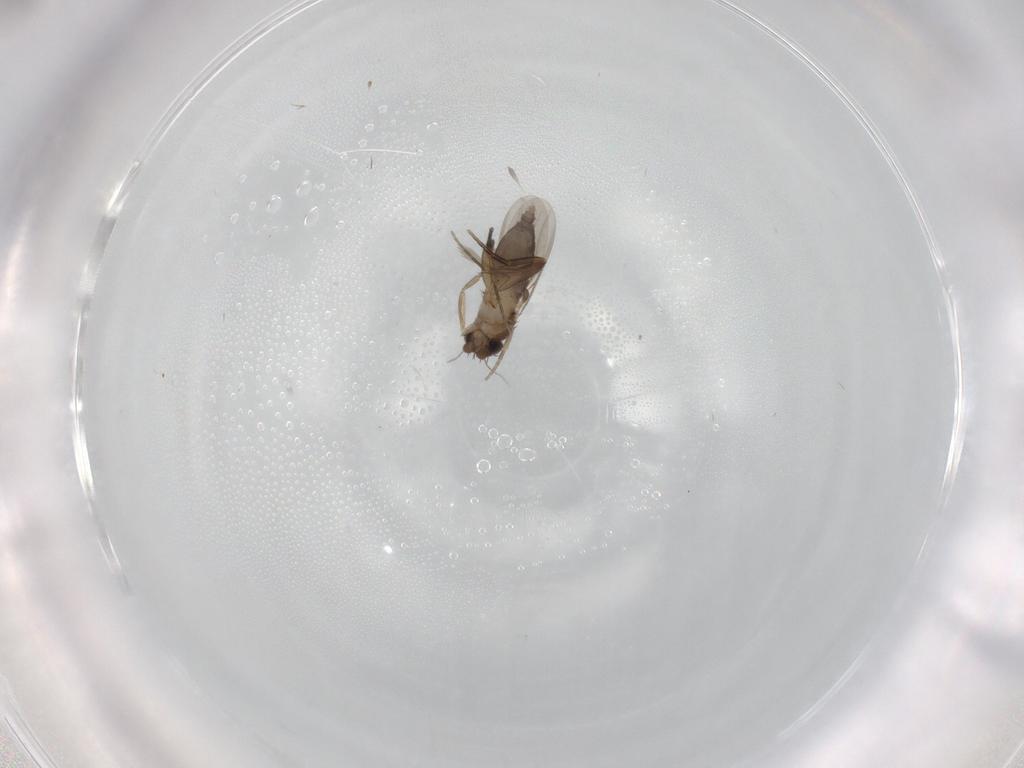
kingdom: Animalia
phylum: Arthropoda
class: Insecta
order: Diptera
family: Phoridae
